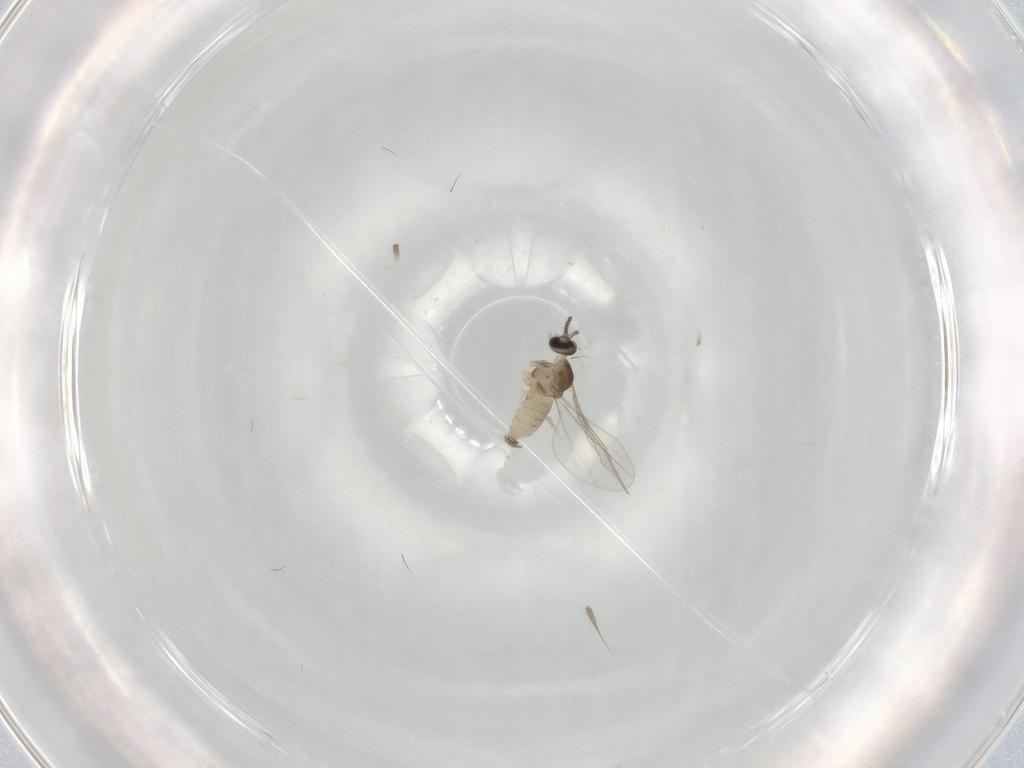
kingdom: Animalia
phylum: Arthropoda
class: Insecta
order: Diptera
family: Cecidomyiidae
